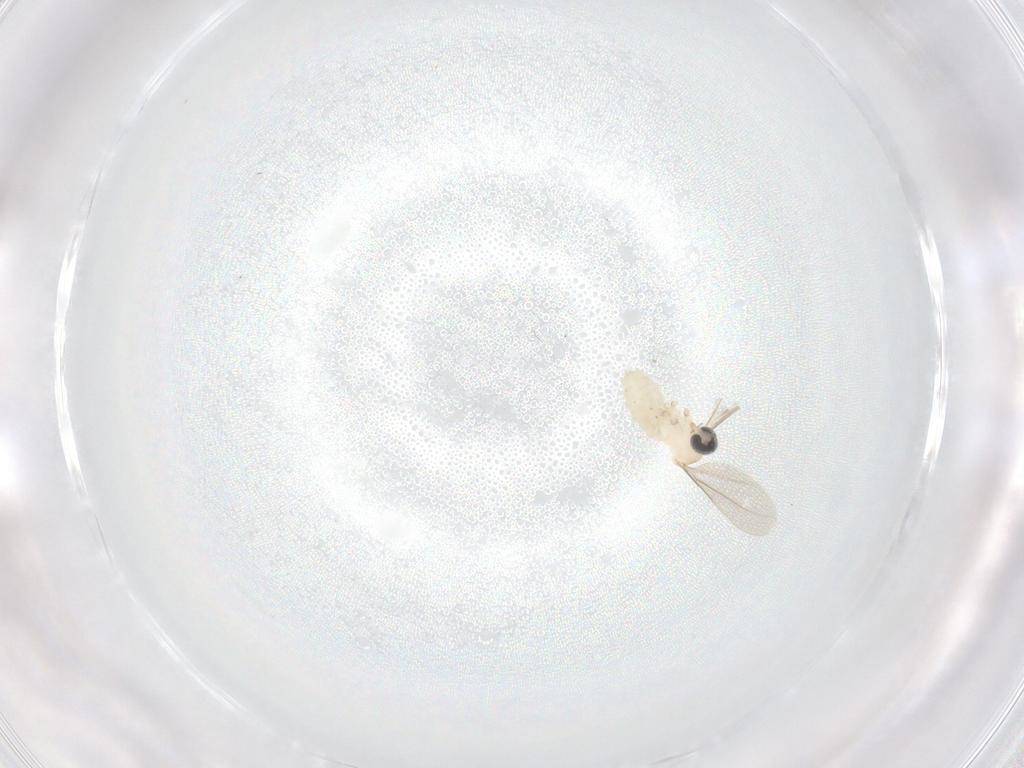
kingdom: Animalia
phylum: Arthropoda
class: Insecta
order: Diptera
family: Cecidomyiidae
